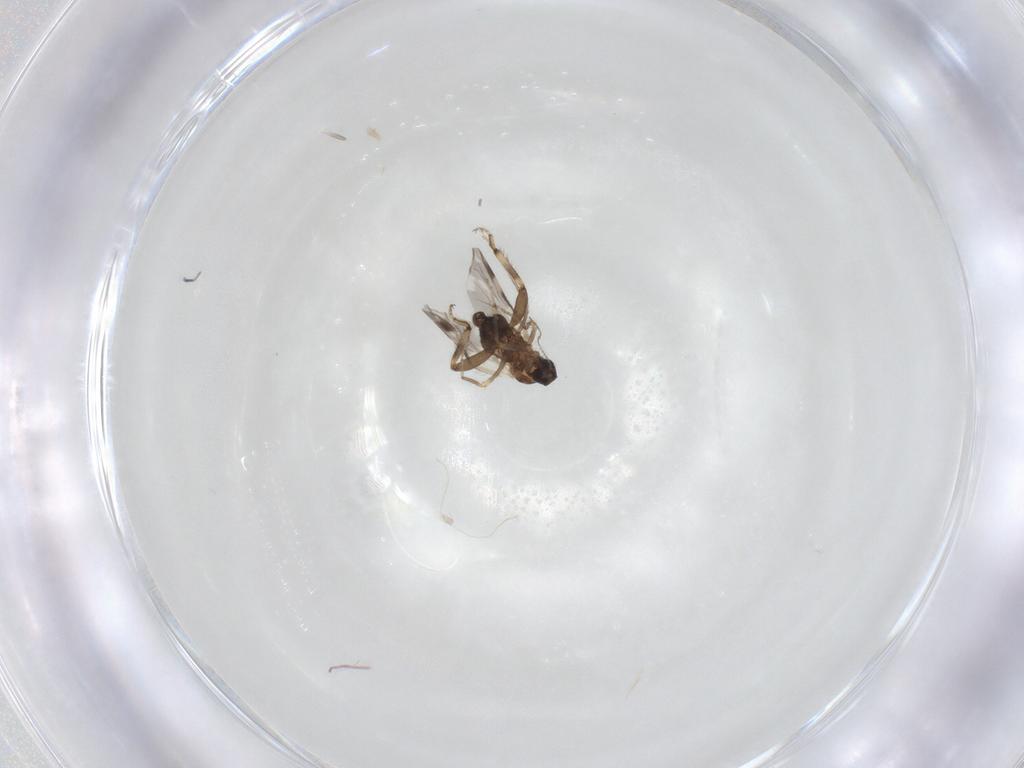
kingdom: Animalia
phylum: Arthropoda
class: Insecta
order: Diptera
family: Ceratopogonidae
